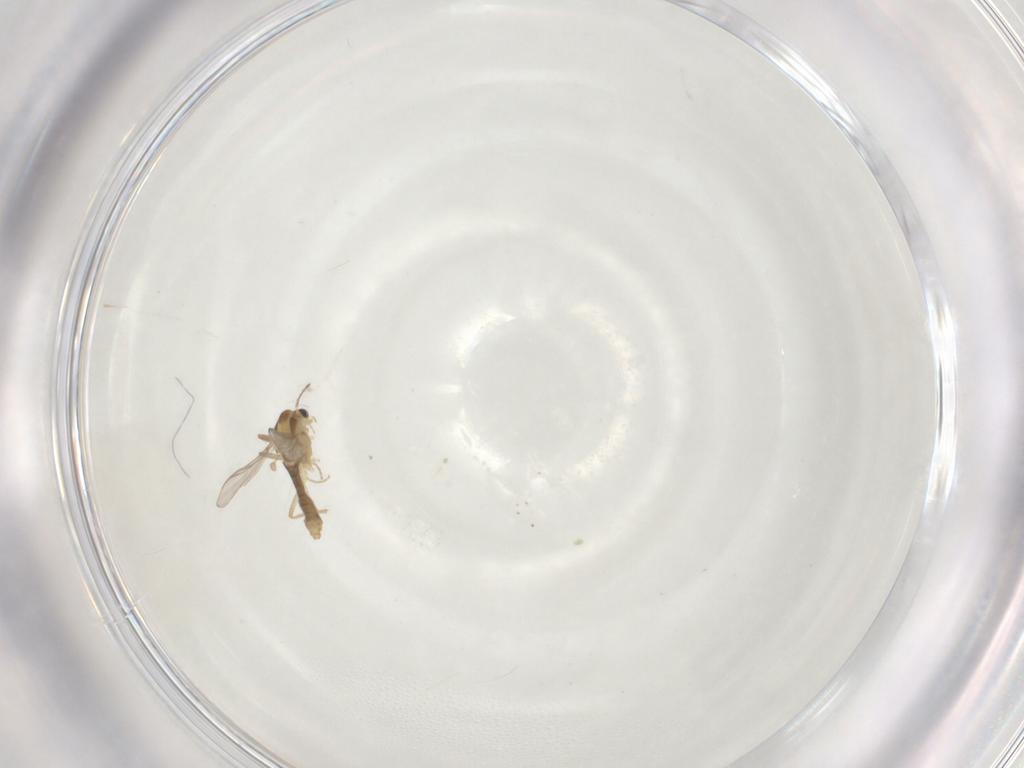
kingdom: Animalia
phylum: Arthropoda
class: Insecta
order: Diptera
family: Chironomidae
